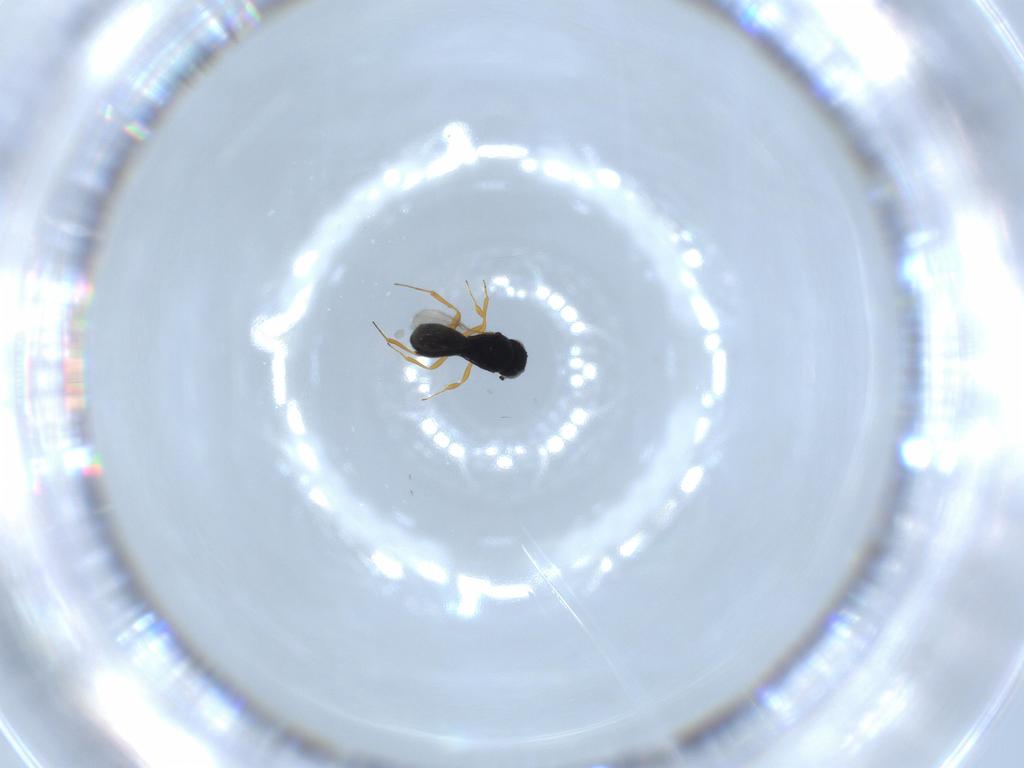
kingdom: Animalia
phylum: Arthropoda
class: Insecta
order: Hymenoptera
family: Scelionidae
